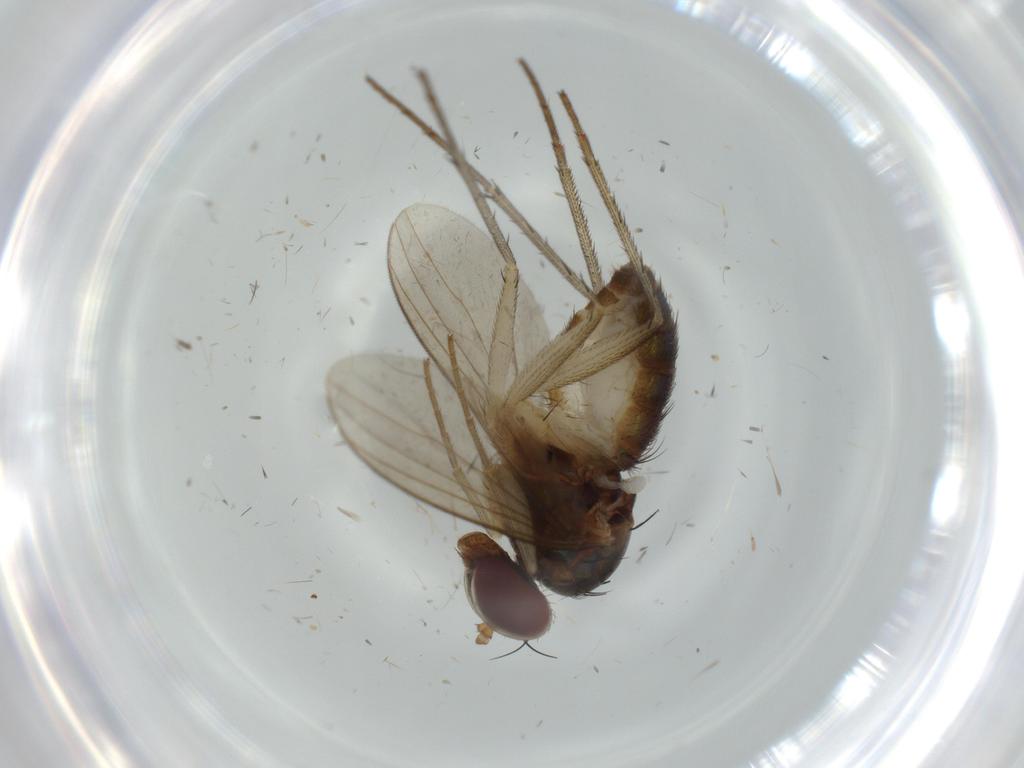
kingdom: Animalia
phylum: Arthropoda
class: Insecta
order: Diptera
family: Dolichopodidae
